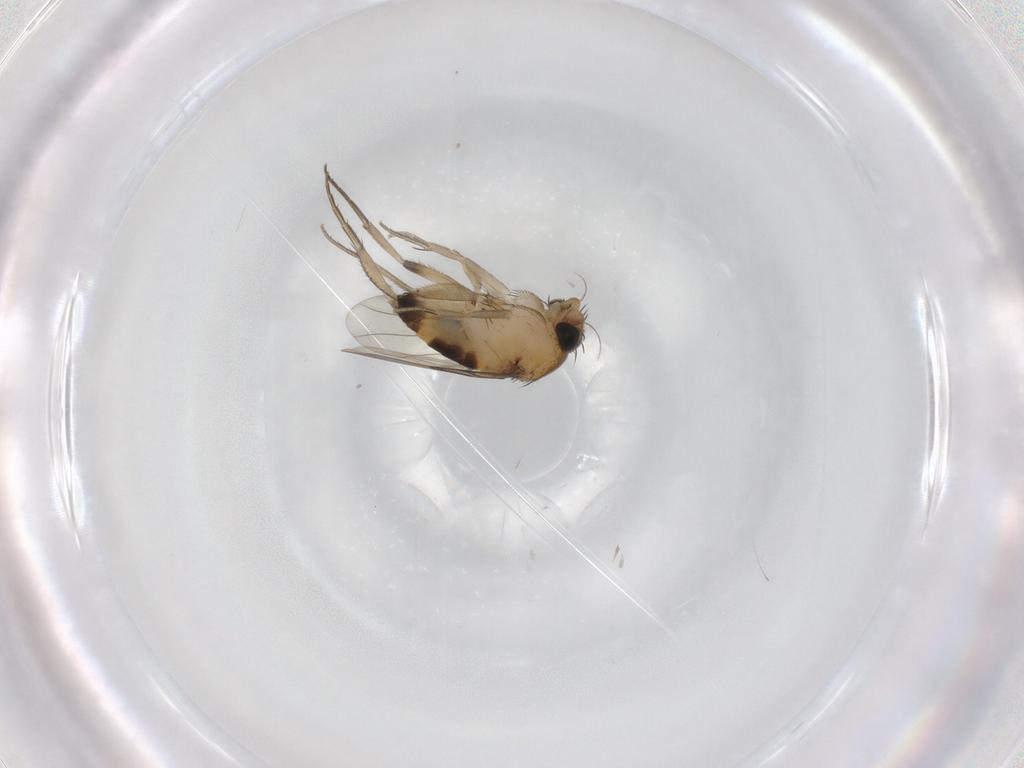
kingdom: Animalia
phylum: Arthropoda
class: Insecta
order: Diptera
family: Phoridae
